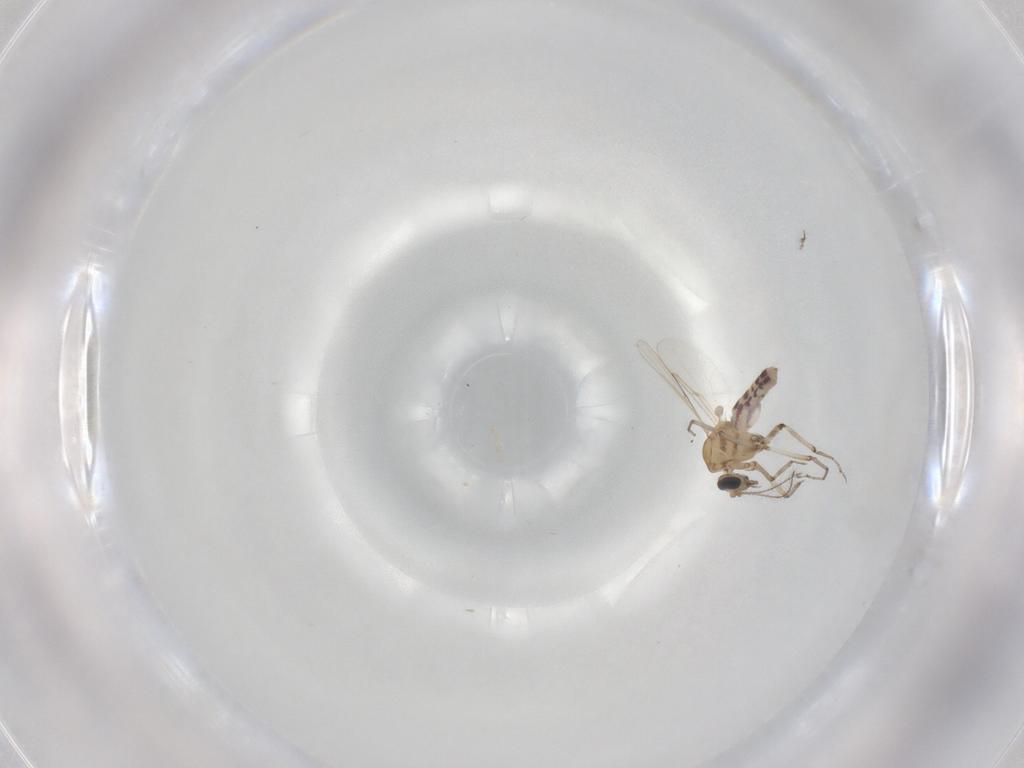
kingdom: Animalia
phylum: Arthropoda
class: Insecta
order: Diptera
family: Ceratopogonidae
